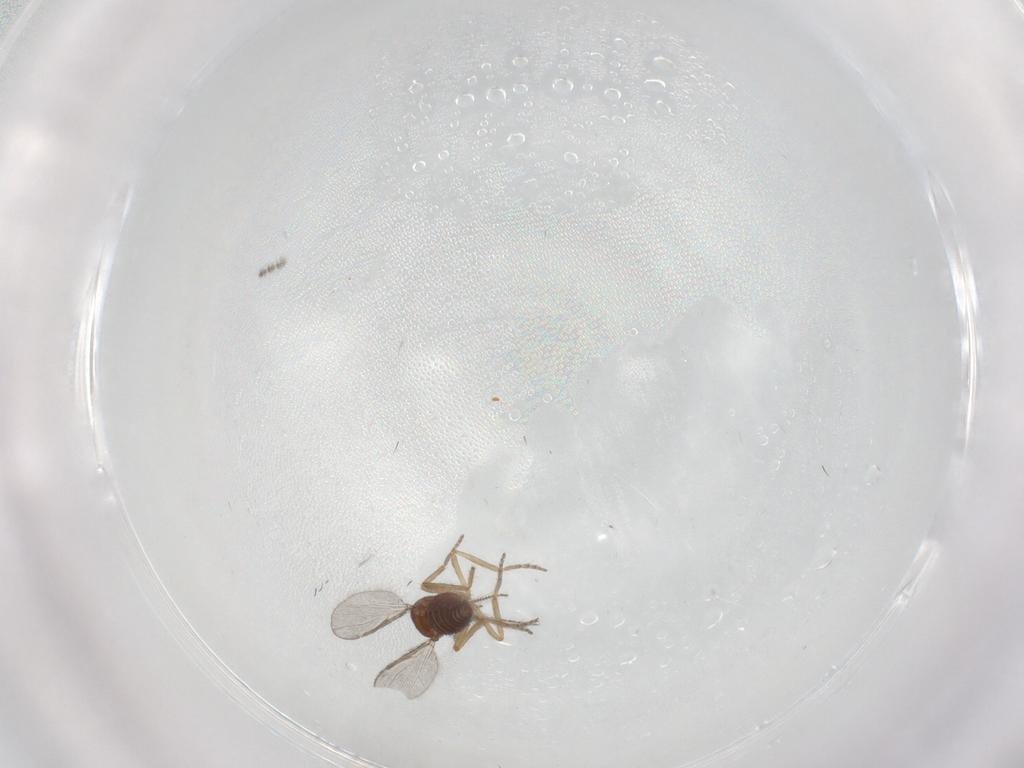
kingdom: Animalia
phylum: Arthropoda
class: Insecta
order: Diptera
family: Ceratopogonidae
